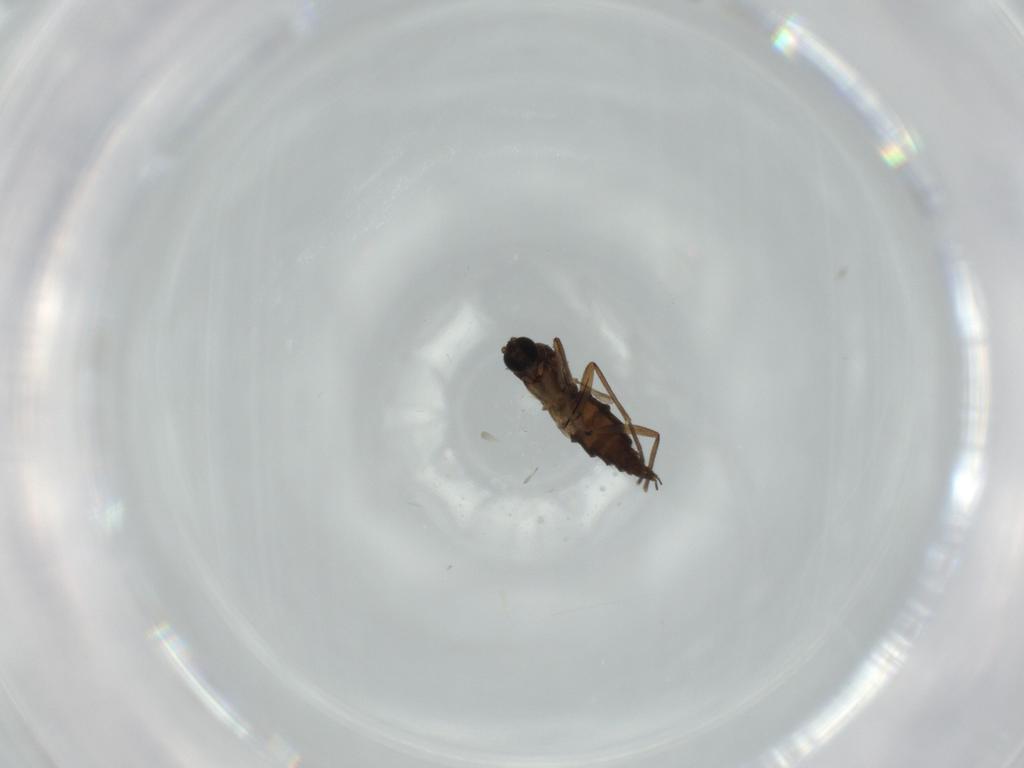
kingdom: Animalia
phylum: Arthropoda
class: Insecta
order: Diptera
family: Sciaridae
